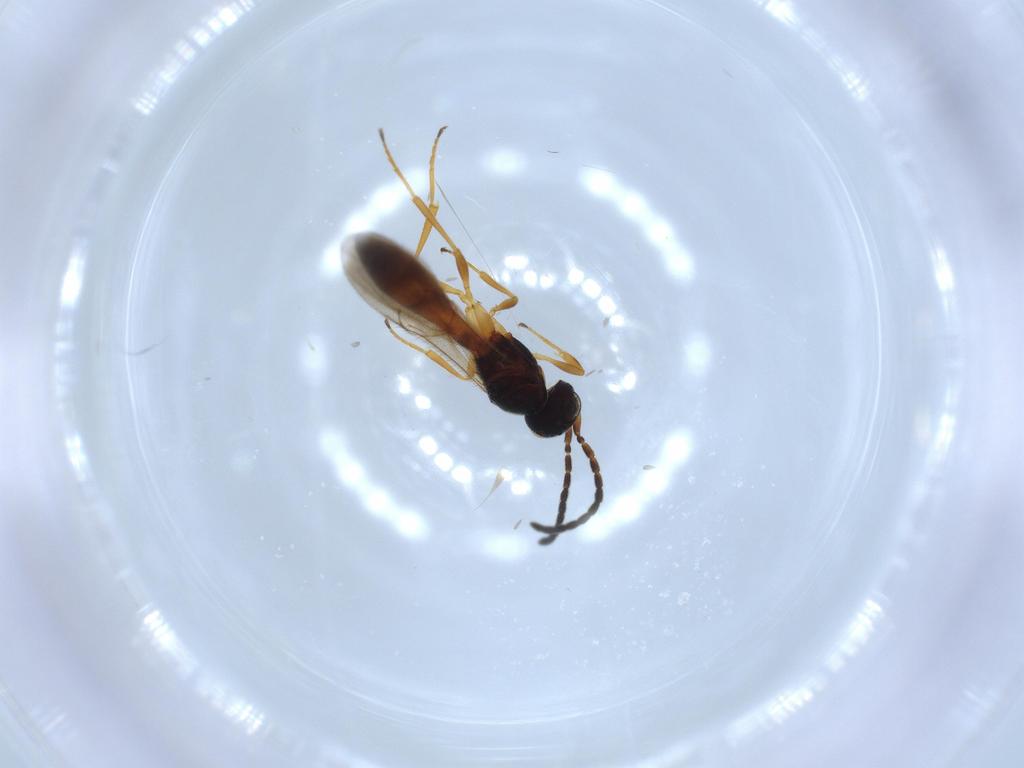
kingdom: Animalia
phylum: Arthropoda
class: Insecta
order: Hymenoptera
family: Scelionidae
